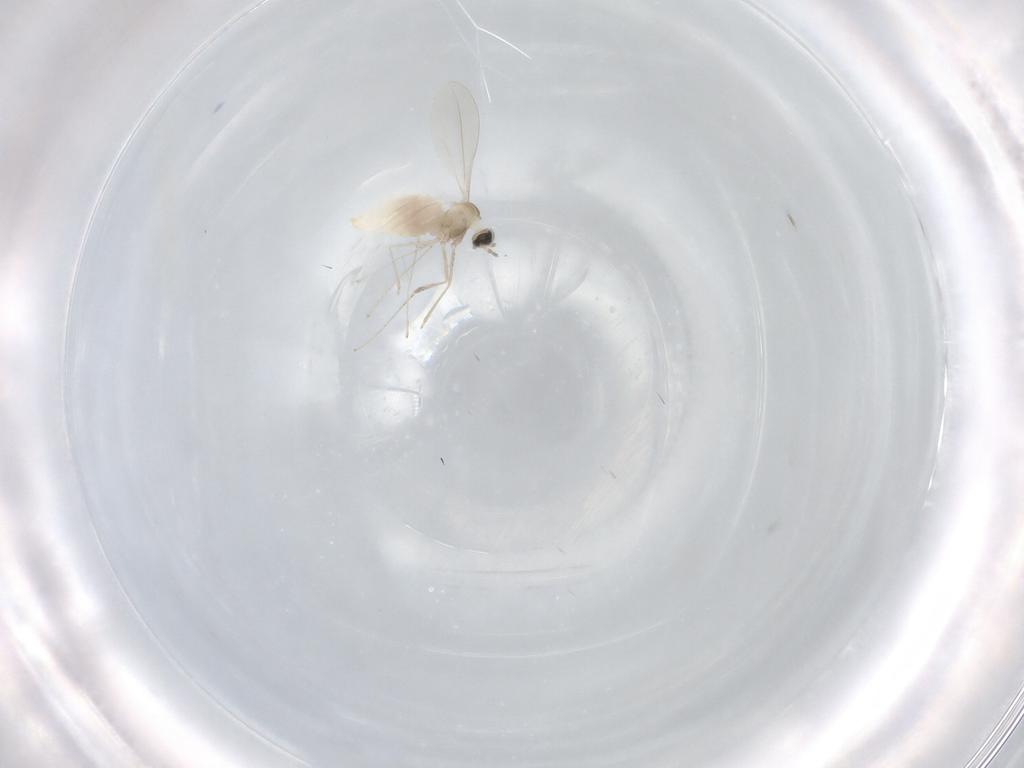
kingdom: Animalia
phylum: Arthropoda
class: Insecta
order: Diptera
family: Cecidomyiidae
